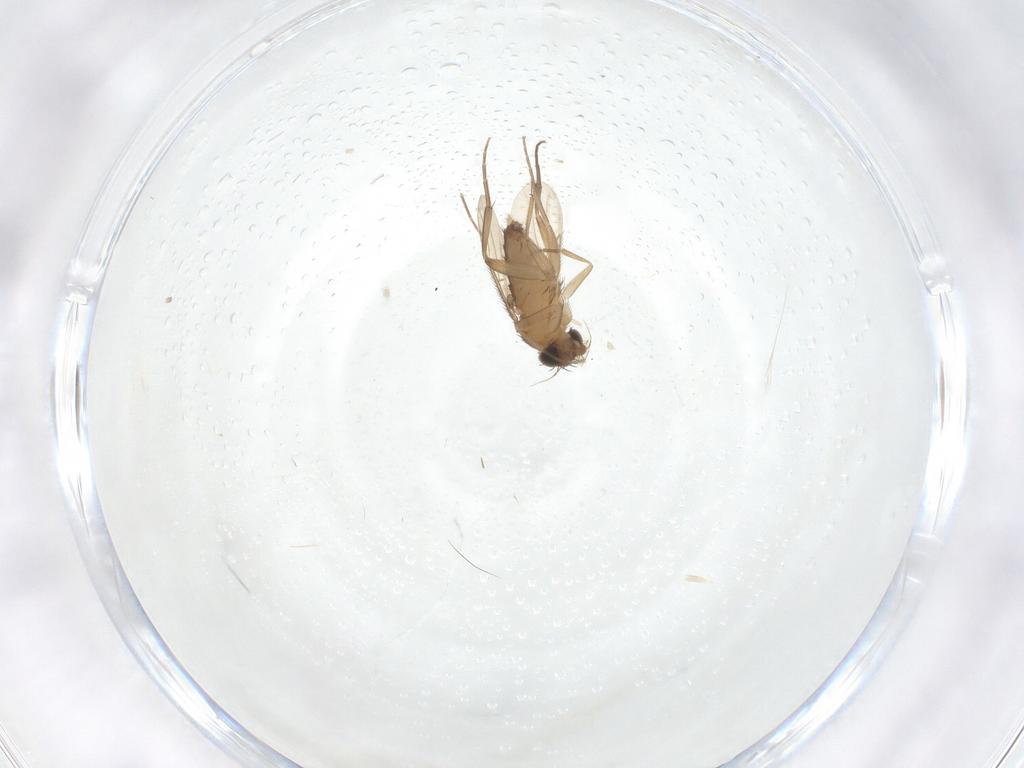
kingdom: Animalia
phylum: Arthropoda
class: Insecta
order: Diptera
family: Phoridae
